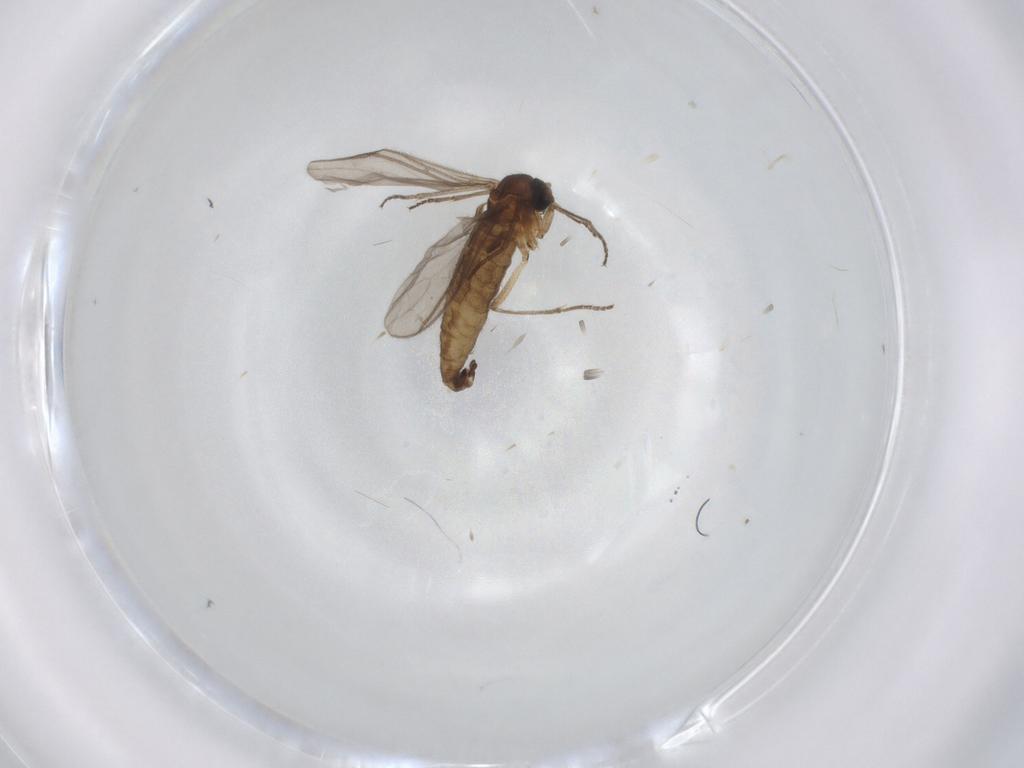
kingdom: Animalia
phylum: Arthropoda
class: Insecta
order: Diptera
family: Sciaridae
